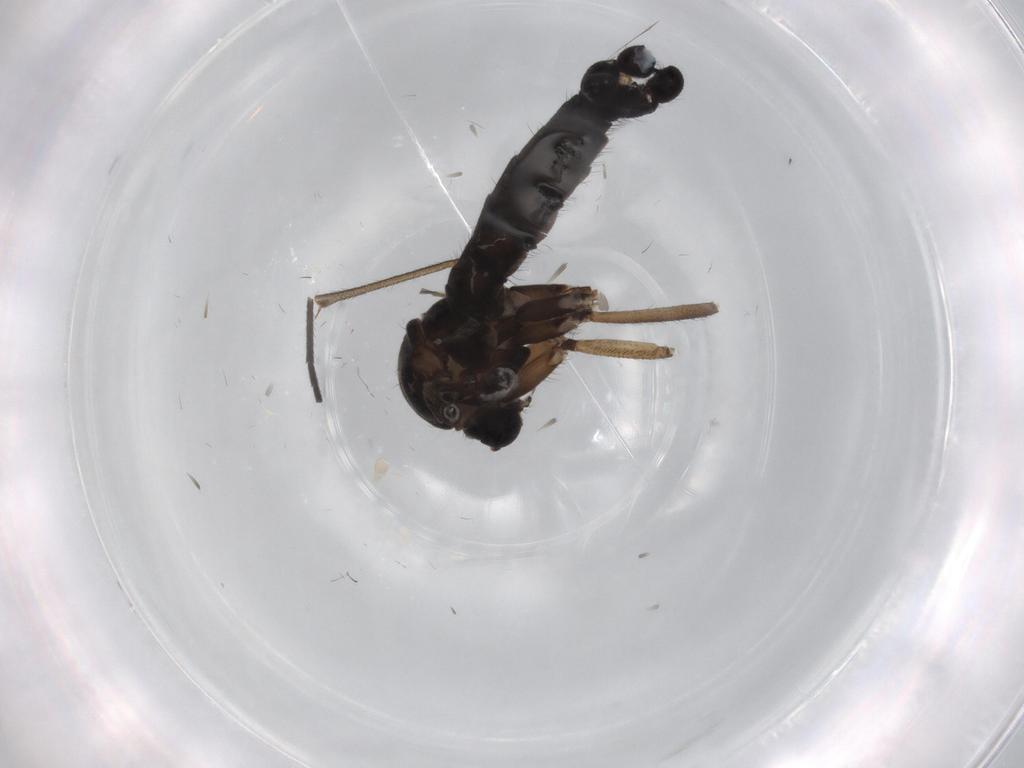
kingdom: Animalia
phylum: Arthropoda
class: Insecta
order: Diptera
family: Sciaridae
